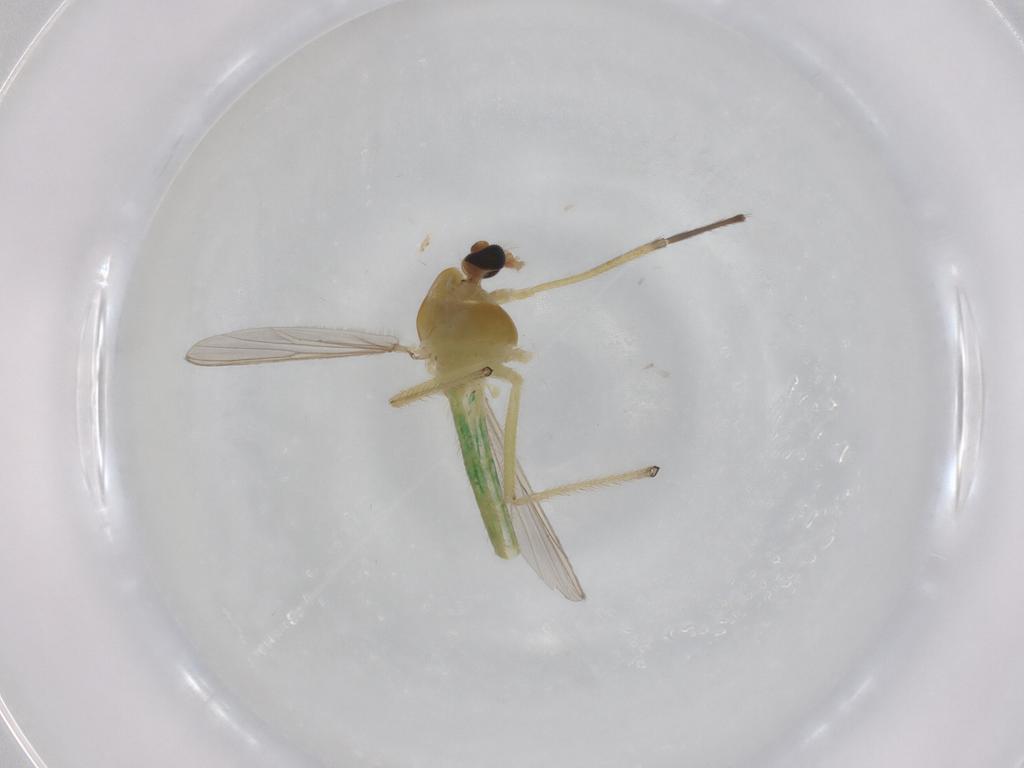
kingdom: Animalia
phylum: Arthropoda
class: Insecta
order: Diptera
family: Chironomidae
